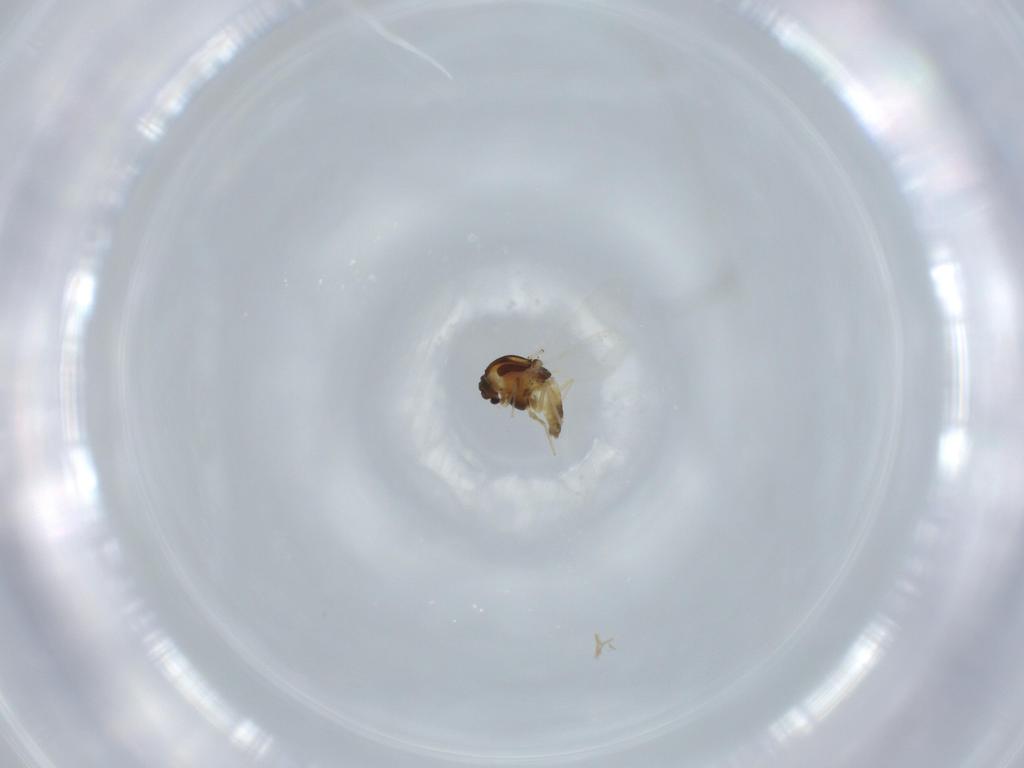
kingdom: Animalia
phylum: Arthropoda
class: Insecta
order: Diptera
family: Chironomidae
